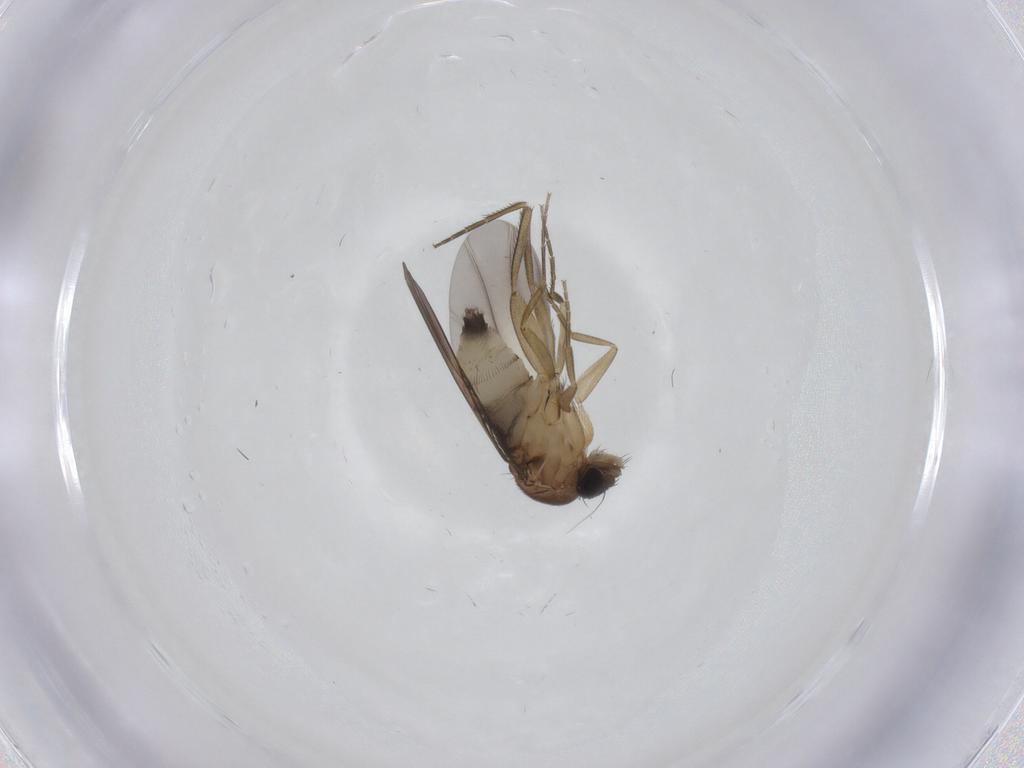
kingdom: Animalia
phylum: Arthropoda
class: Insecta
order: Diptera
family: Phoridae
